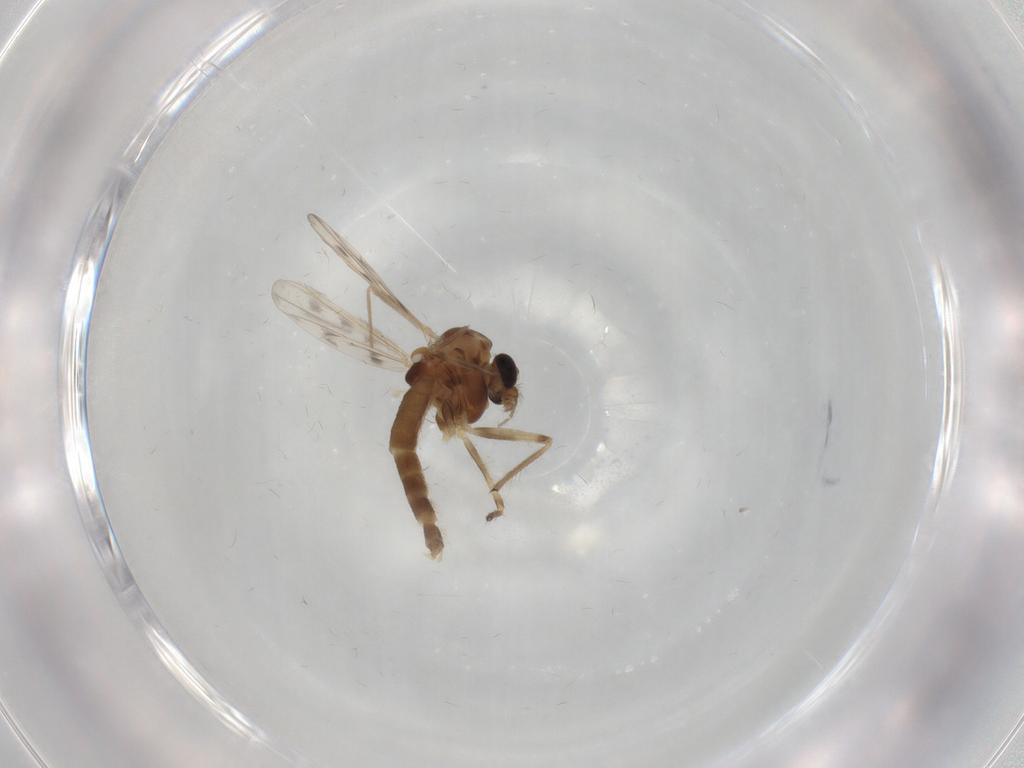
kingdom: Animalia
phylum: Arthropoda
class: Insecta
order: Diptera
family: Chironomidae
